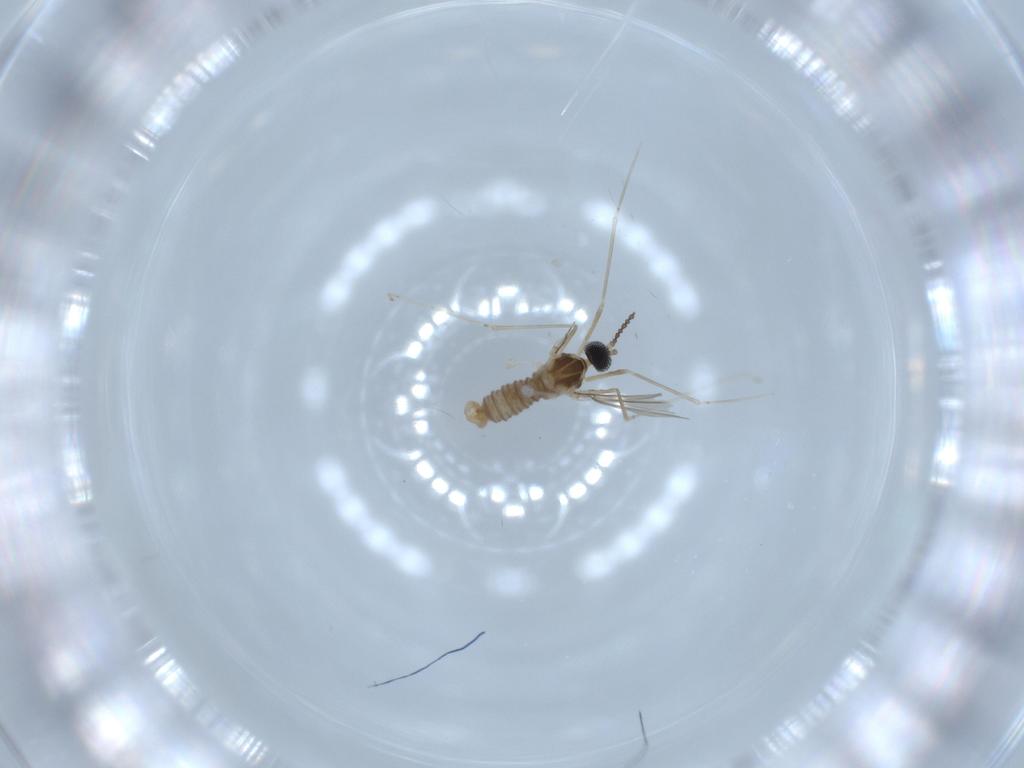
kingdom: Animalia
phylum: Arthropoda
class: Insecta
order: Diptera
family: Cecidomyiidae
